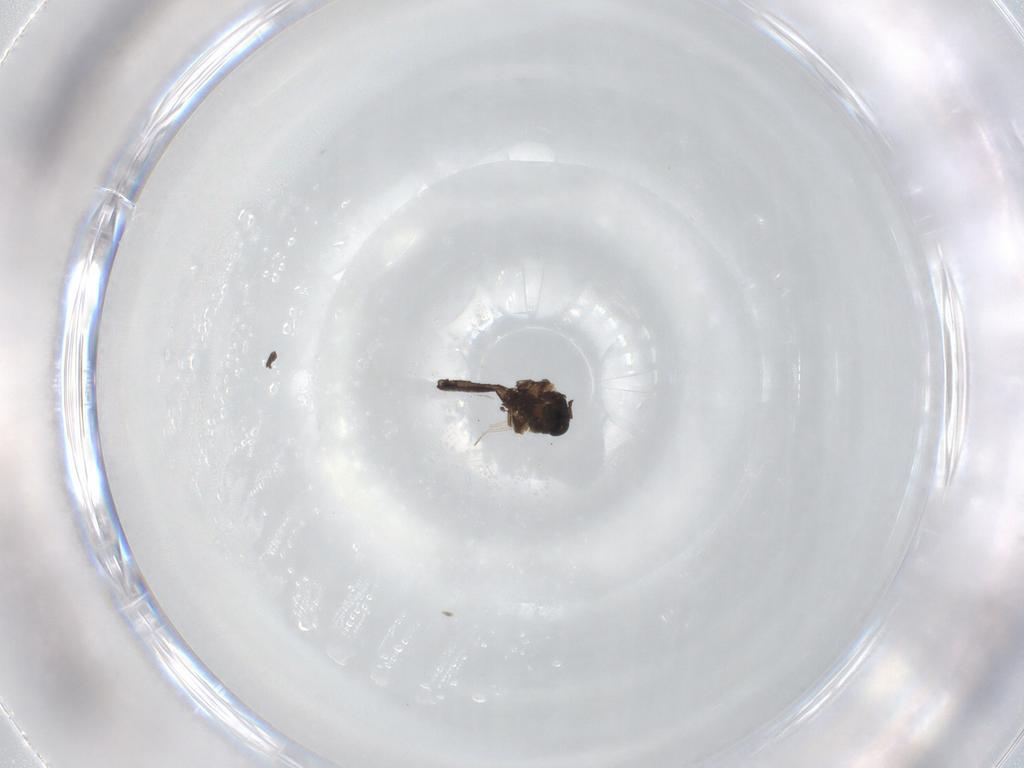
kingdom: Animalia
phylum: Arthropoda
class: Insecta
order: Diptera
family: Ceratopogonidae
